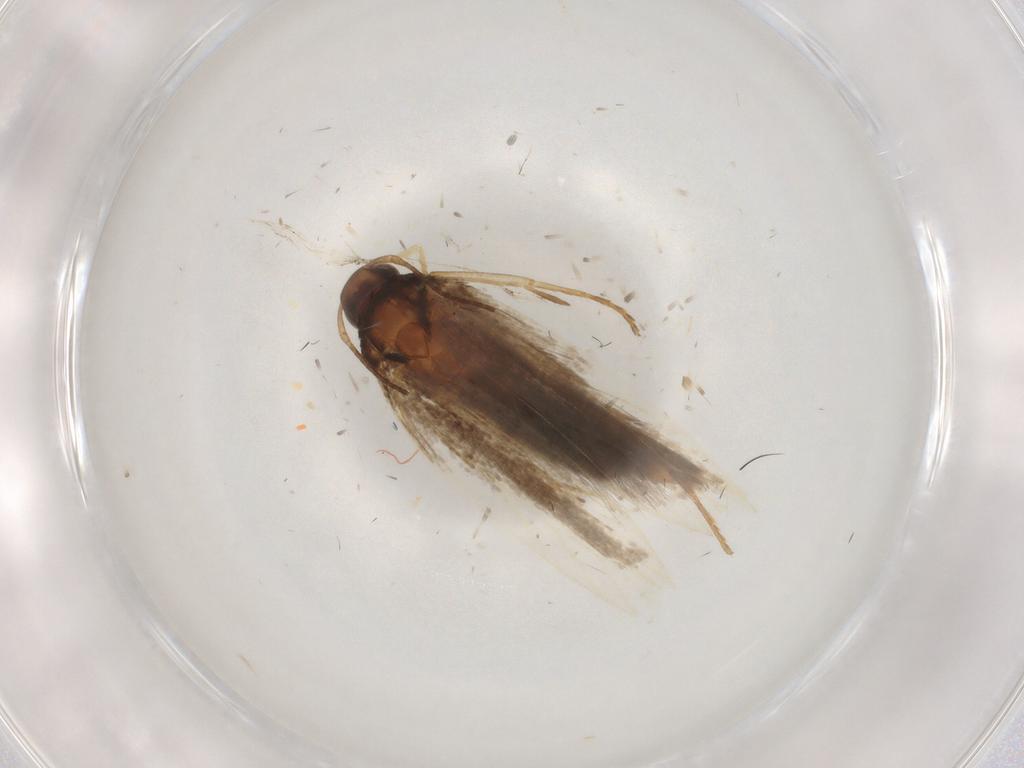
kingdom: Animalia
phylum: Arthropoda
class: Insecta
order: Lepidoptera
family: Gelechiidae
